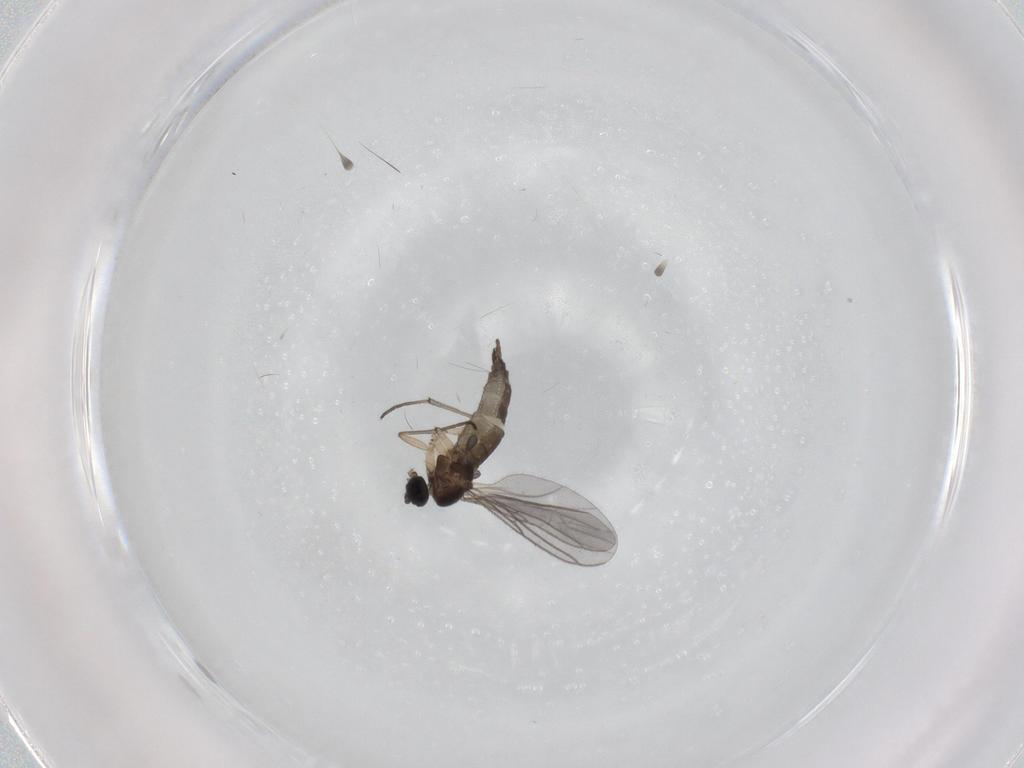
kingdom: Animalia
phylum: Arthropoda
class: Insecta
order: Diptera
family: Sciaridae
